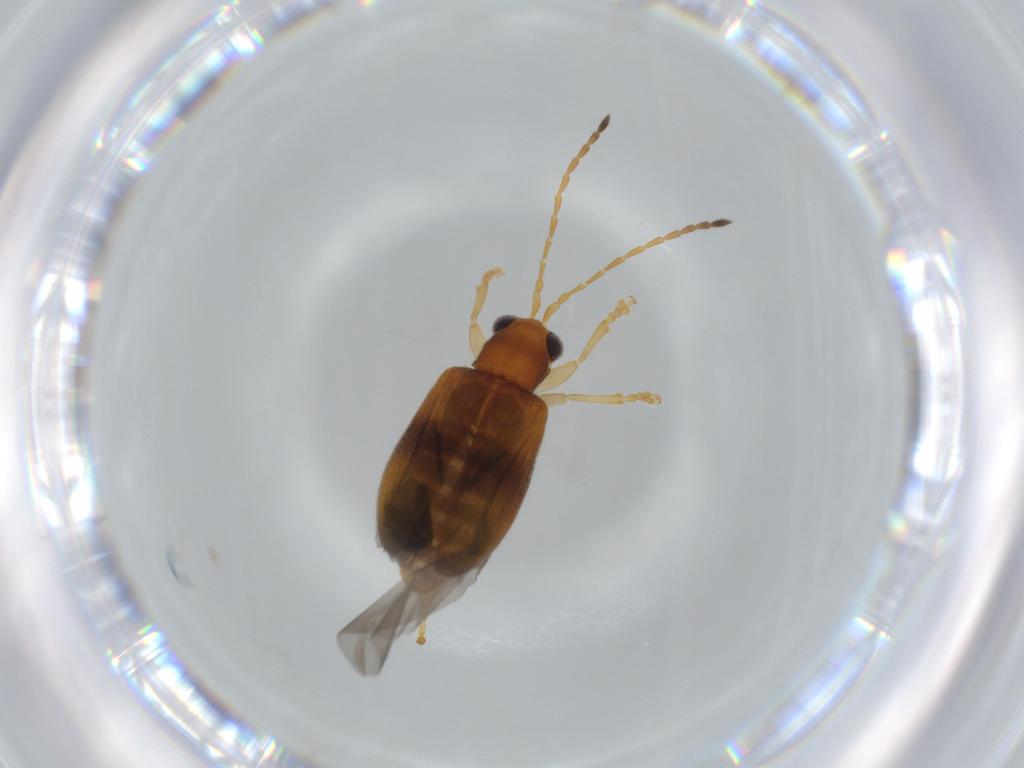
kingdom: Animalia
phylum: Arthropoda
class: Insecta
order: Coleoptera
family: Chrysomelidae
